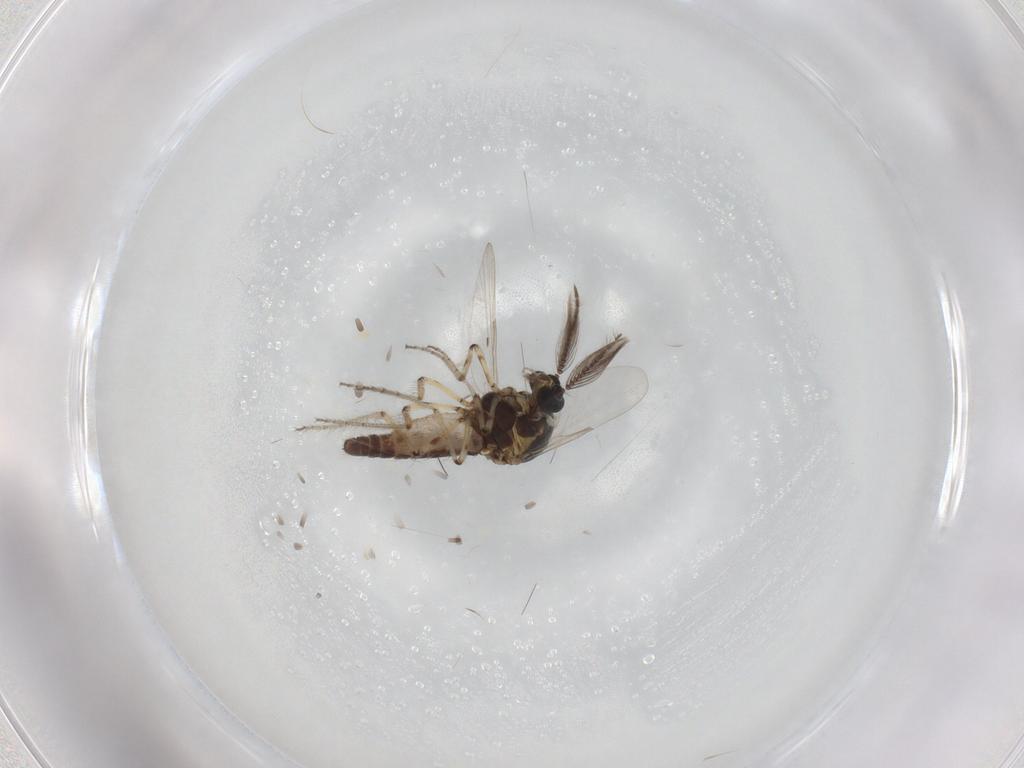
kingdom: Animalia
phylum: Arthropoda
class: Insecta
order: Diptera
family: Ceratopogonidae
